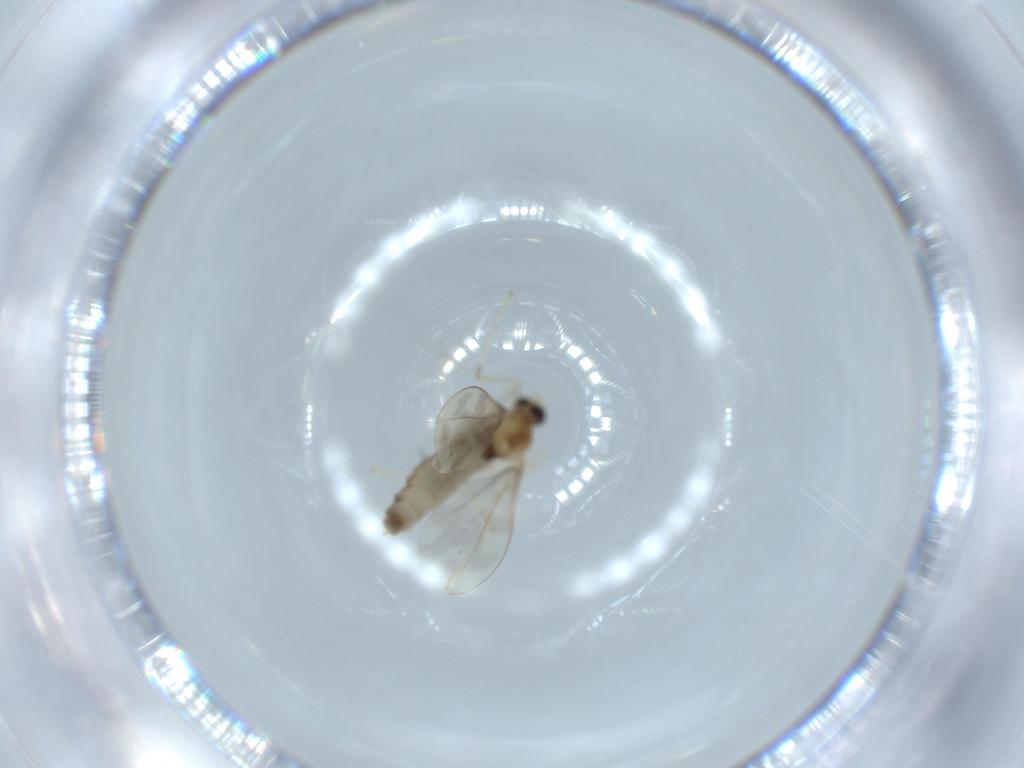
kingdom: Animalia
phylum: Arthropoda
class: Insecta
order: Diptera
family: Cecidomyiidae
